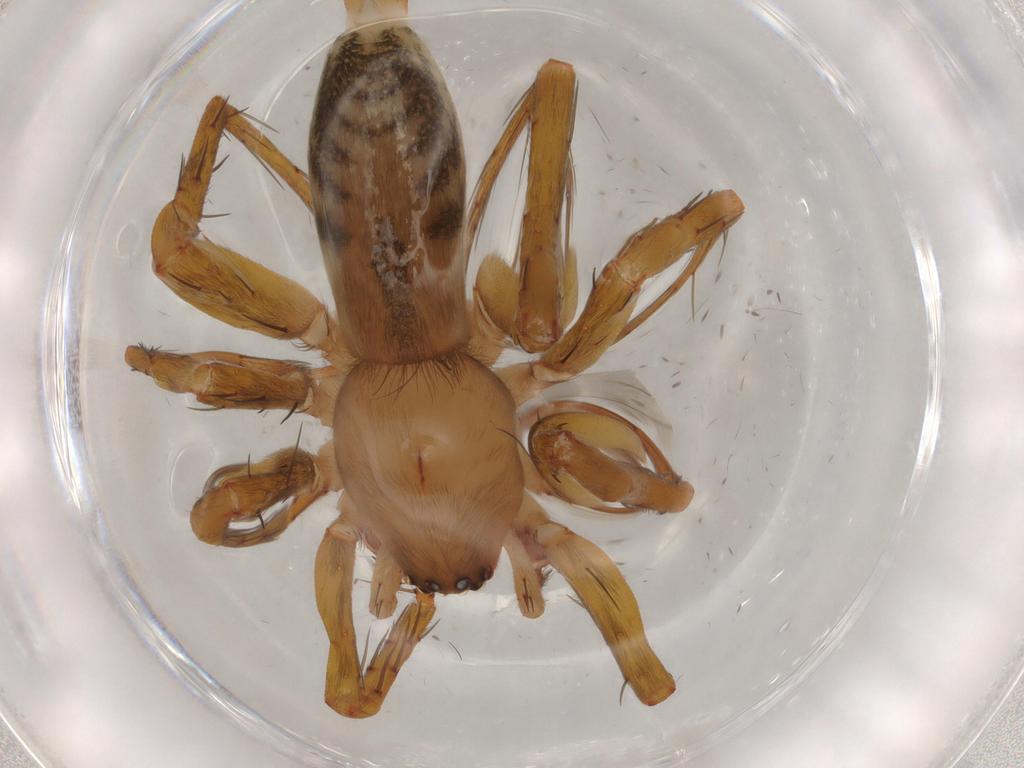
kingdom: Animalia
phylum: Arthropoda
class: Arachnida
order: Araneae
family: Clubionidae
